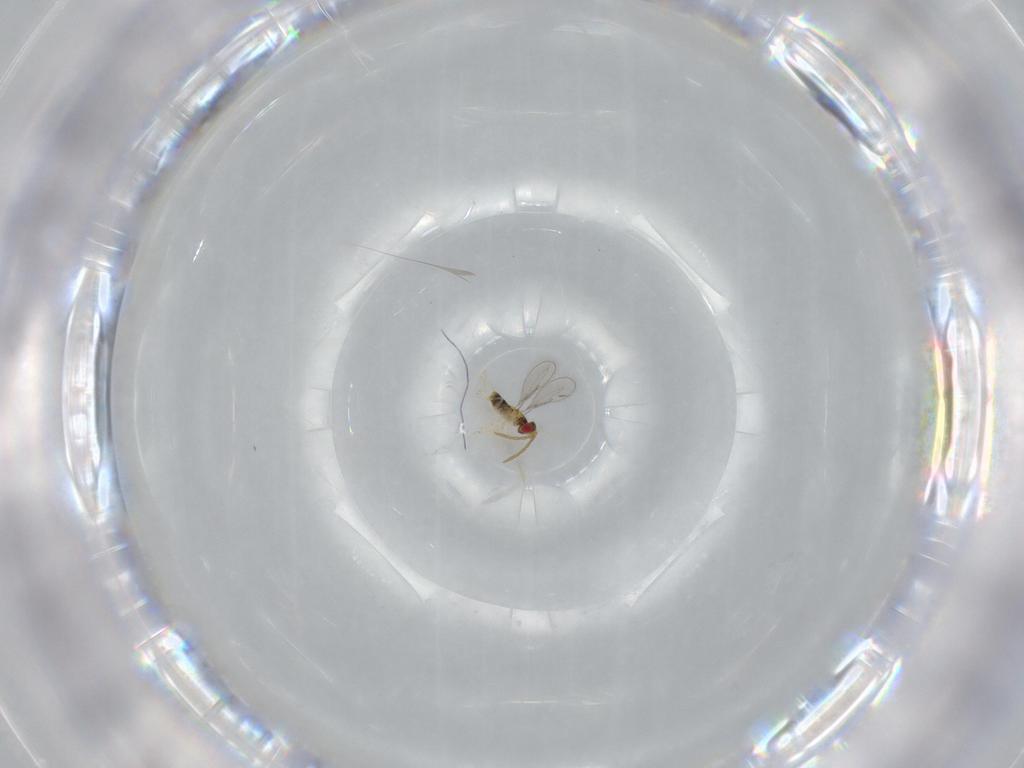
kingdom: Animalia
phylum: Arthropoda
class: Insecta
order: Hymenoptera
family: Aphelinidae
